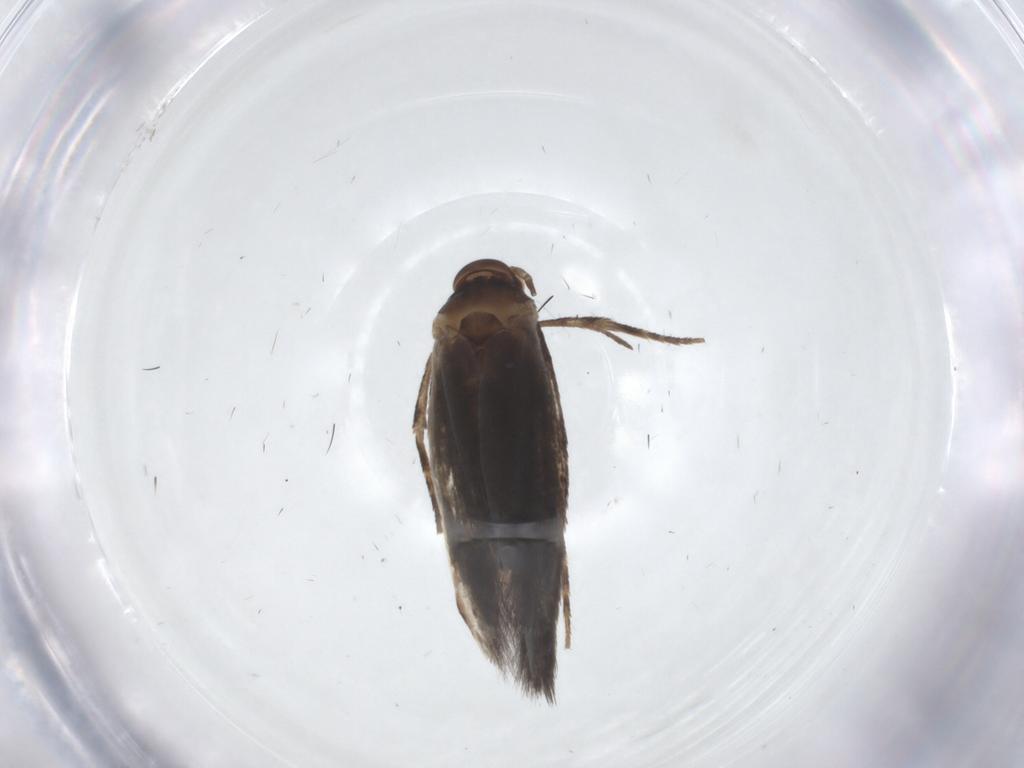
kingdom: Animalia
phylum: Arthropoda
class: Insecta
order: Lepidoptera
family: Elachistidae
